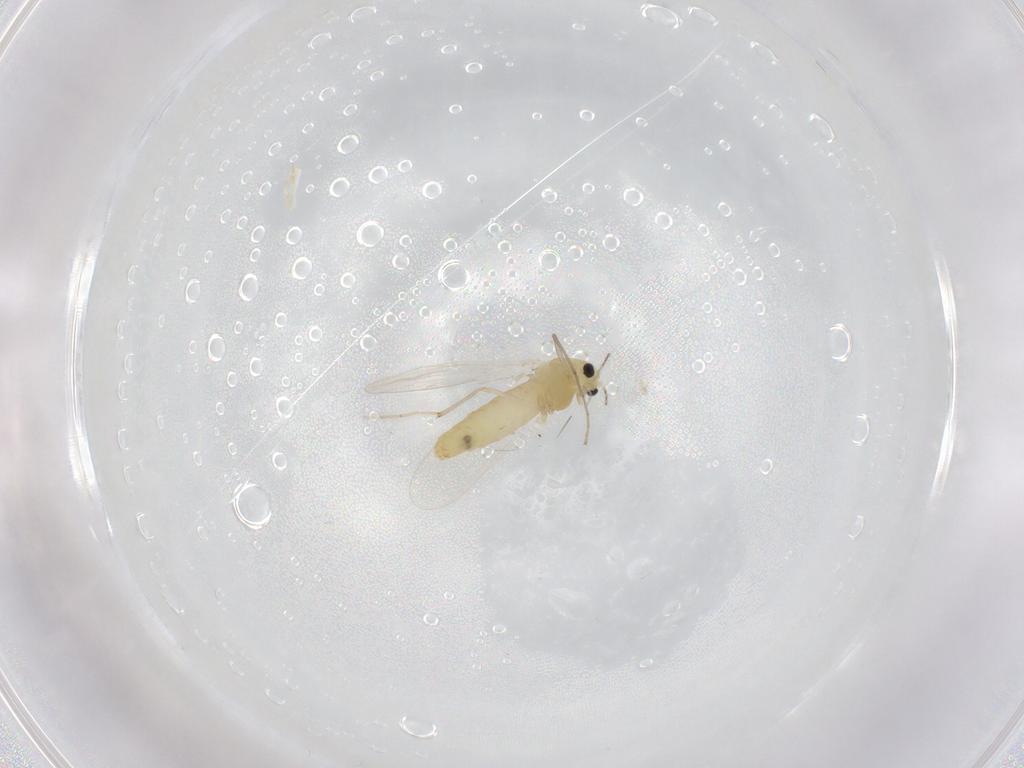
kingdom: Animalia
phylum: Arthropoda
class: Insecta
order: Diptera
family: Chironomidae
